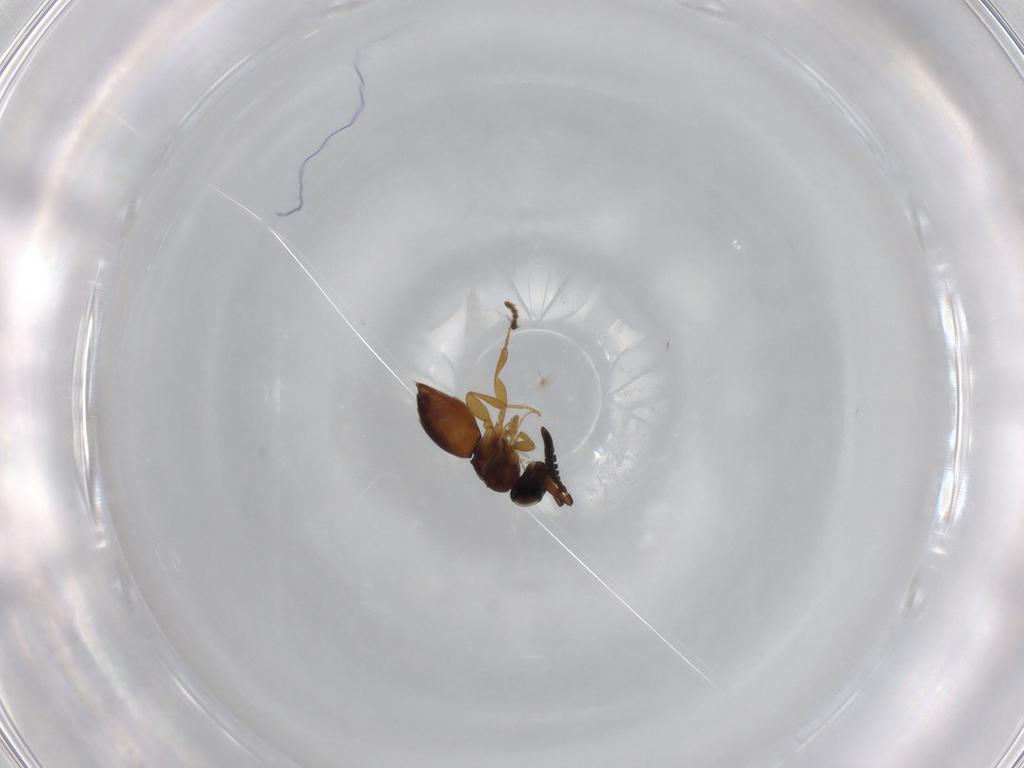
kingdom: Animalia
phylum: Arthropoda
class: Insecta
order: Hymenoptera
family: Ceraphronidae
